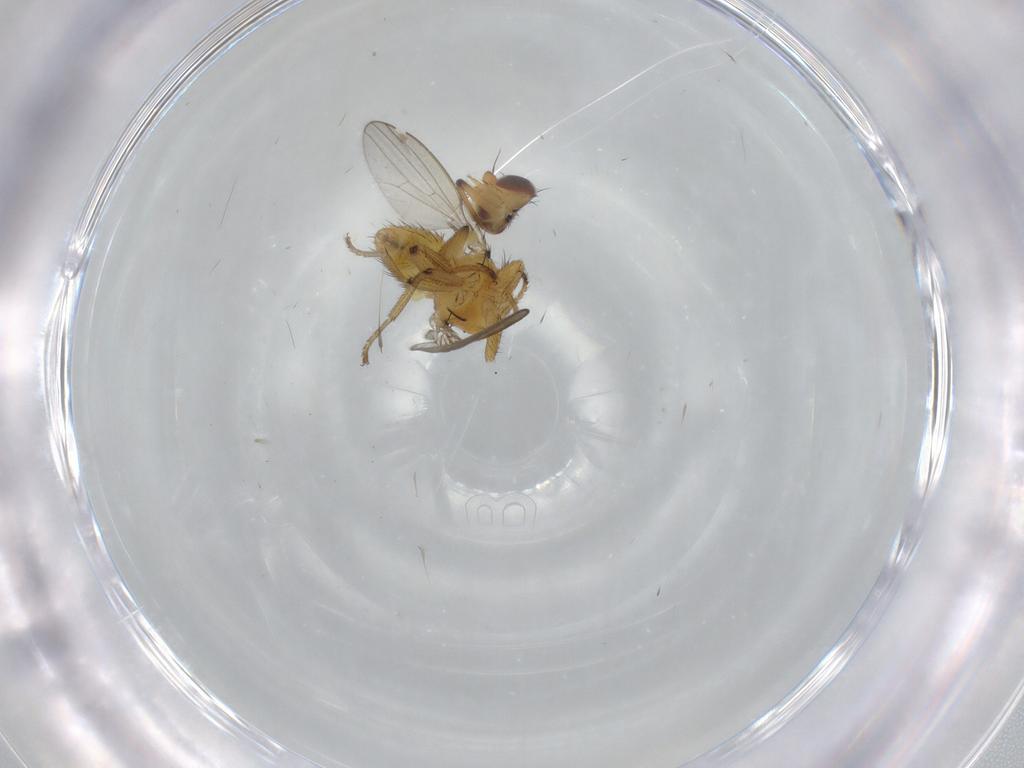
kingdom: Animalia
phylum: Arthropoda
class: Insecta
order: Diptera
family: Milichiidae
